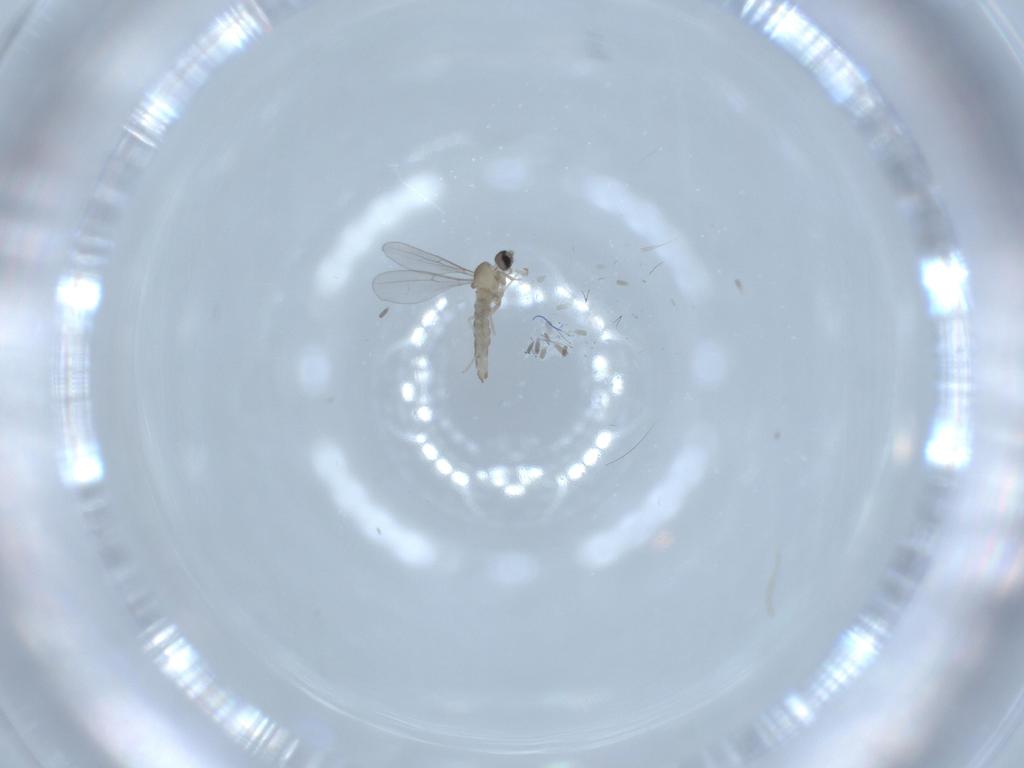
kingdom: Animalia
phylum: Arthropoda
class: Insecta
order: Diptera
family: Cecidomyiidae
